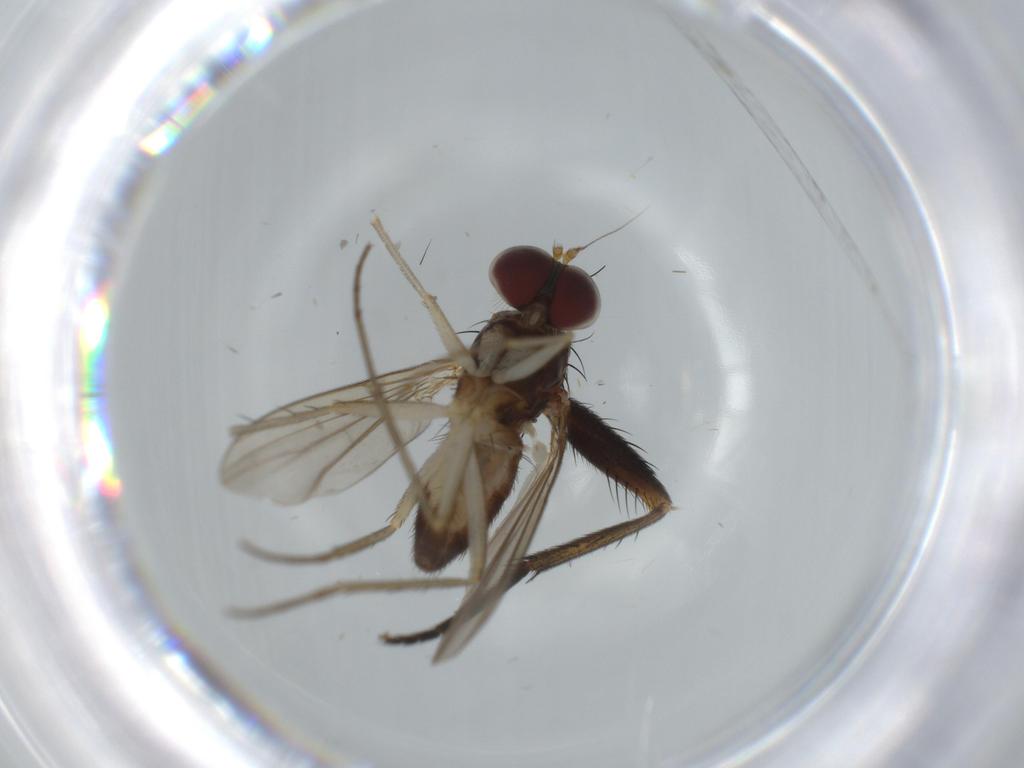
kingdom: Animalia
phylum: Arthropoda
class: Insecta
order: Diptera
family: Dolichopodidae
